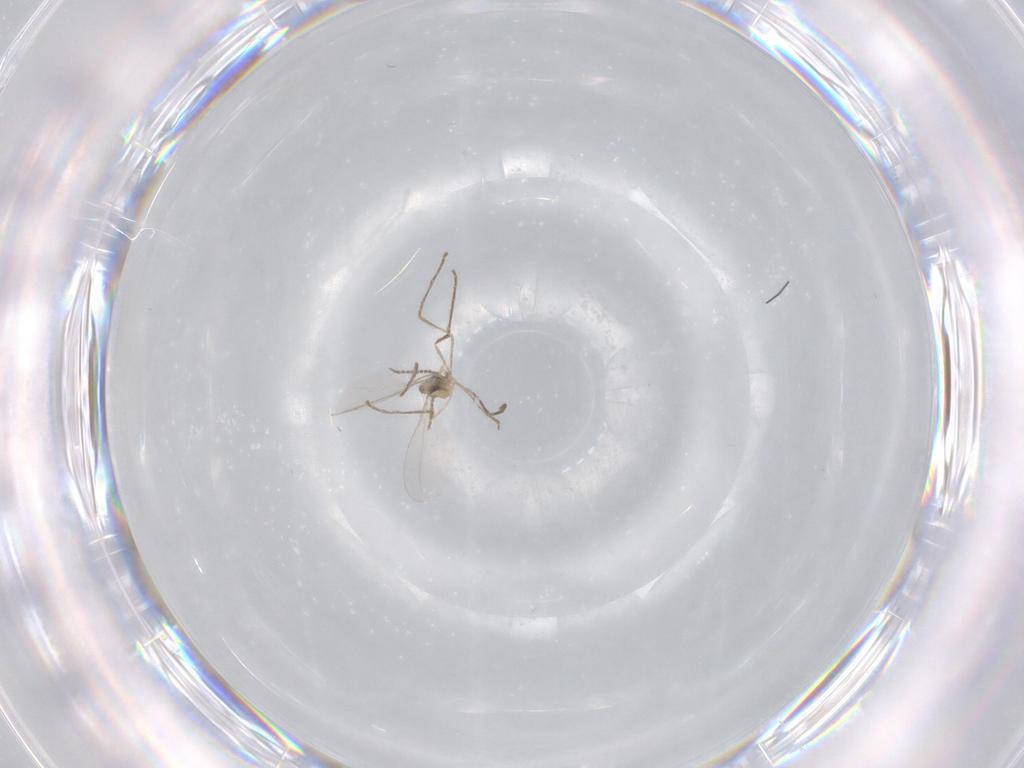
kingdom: Animalia
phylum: Arthropoda
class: Insecta
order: Diptera
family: Cecidomyiidae
